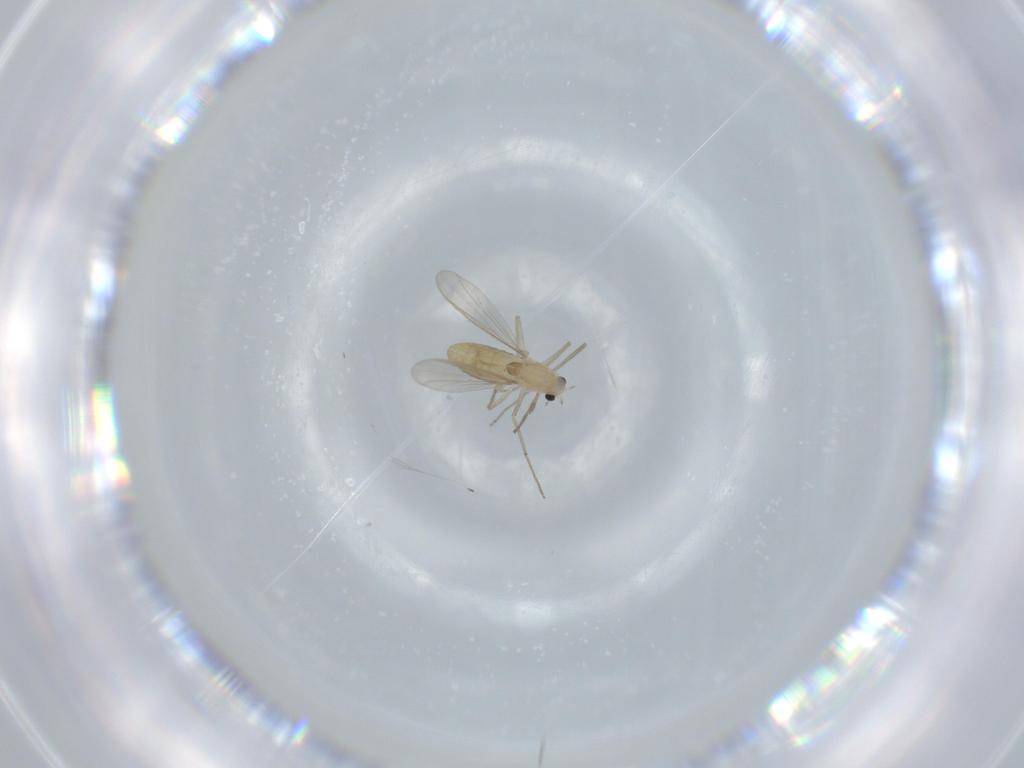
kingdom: Animalia
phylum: Arthropoda
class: Insecta
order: Diptera
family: Chironomidae
